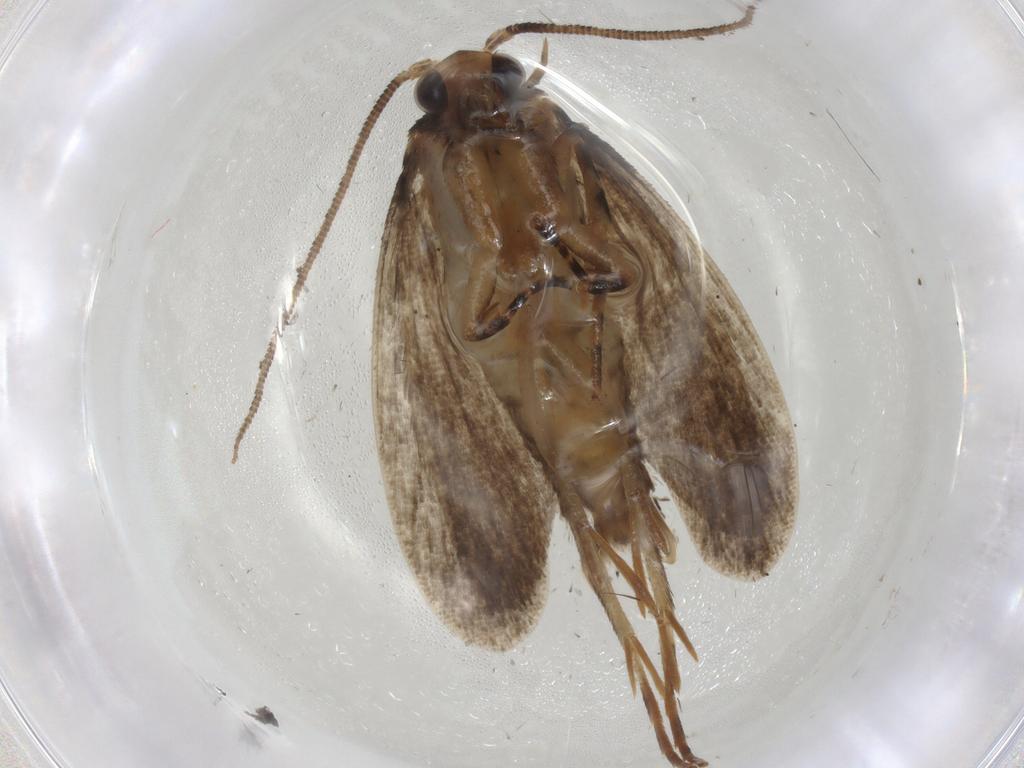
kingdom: Animalia
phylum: Arthropoda
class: Insecta
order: Lepidoptera
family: Tineidae
